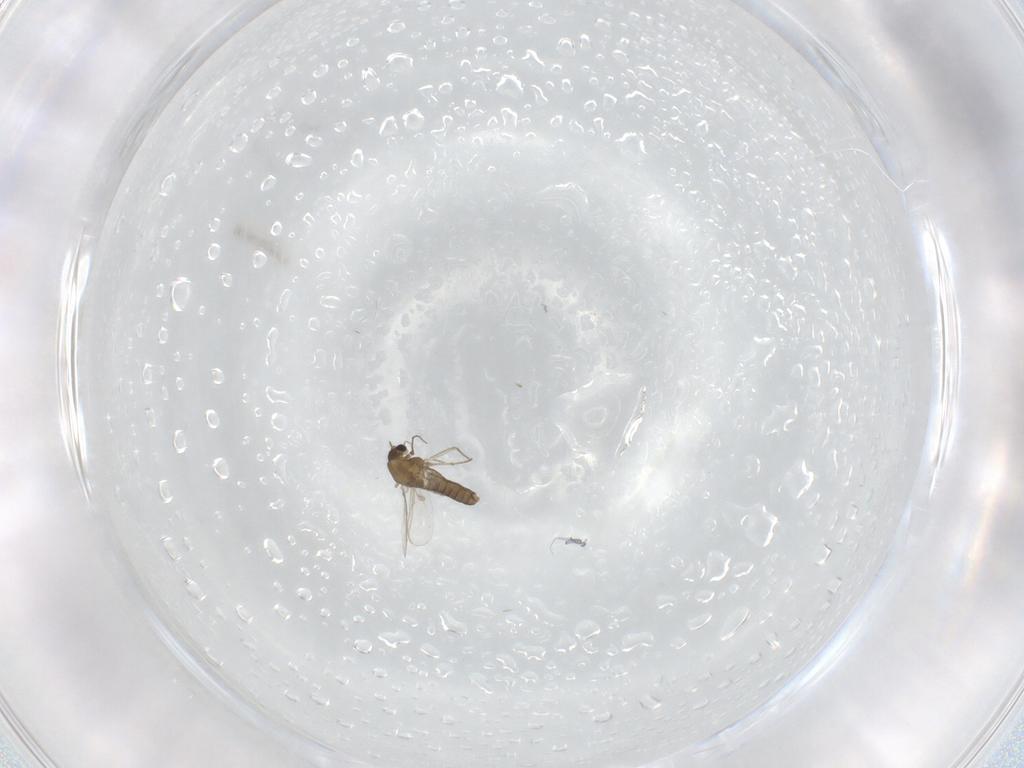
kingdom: Animalia
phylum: Arthropoda
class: Insecta
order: Diptera
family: Chironomidae
